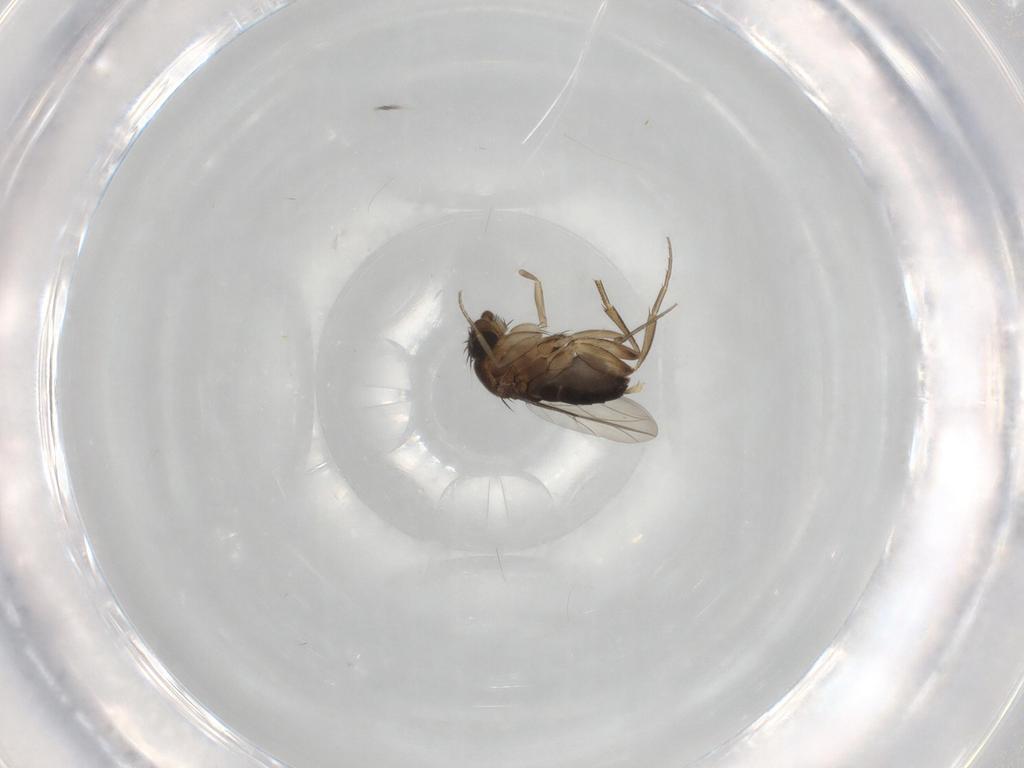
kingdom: Animalia
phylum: Arthropoda
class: Insecta
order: Diptera
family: Phoridae
